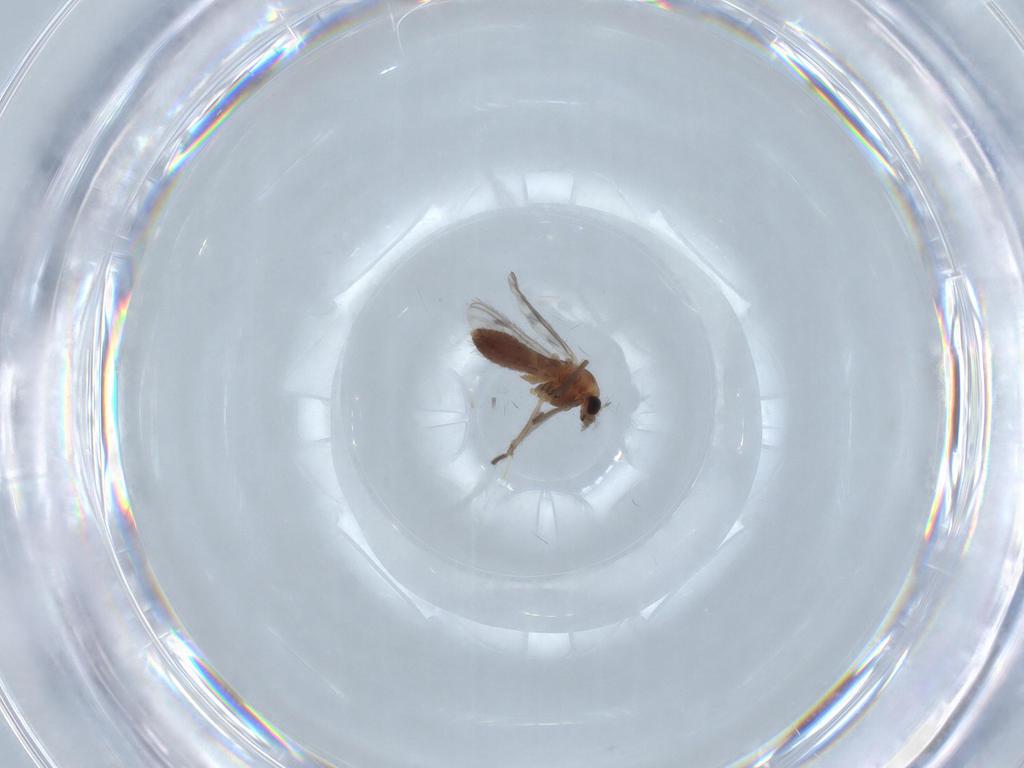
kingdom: Animalia
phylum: Arthropoda
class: Insecta
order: Diptera
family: Chironomidae
